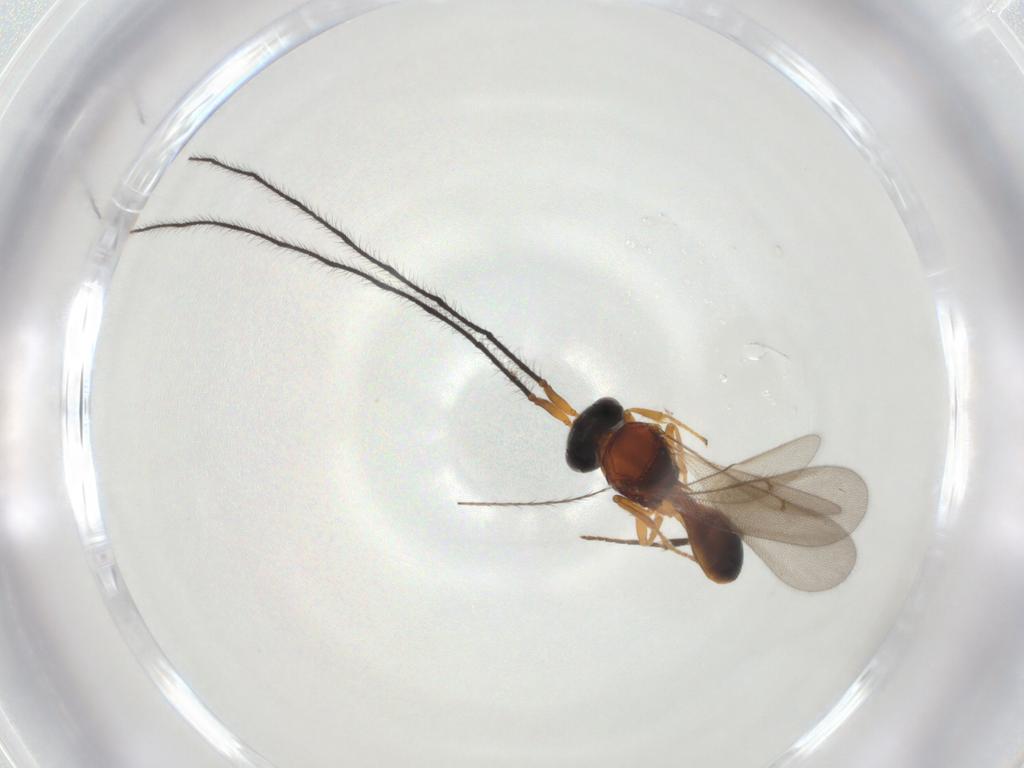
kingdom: Animalia
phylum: Arthropoda
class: Insecta
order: Hymenoptera
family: Scelionidae
